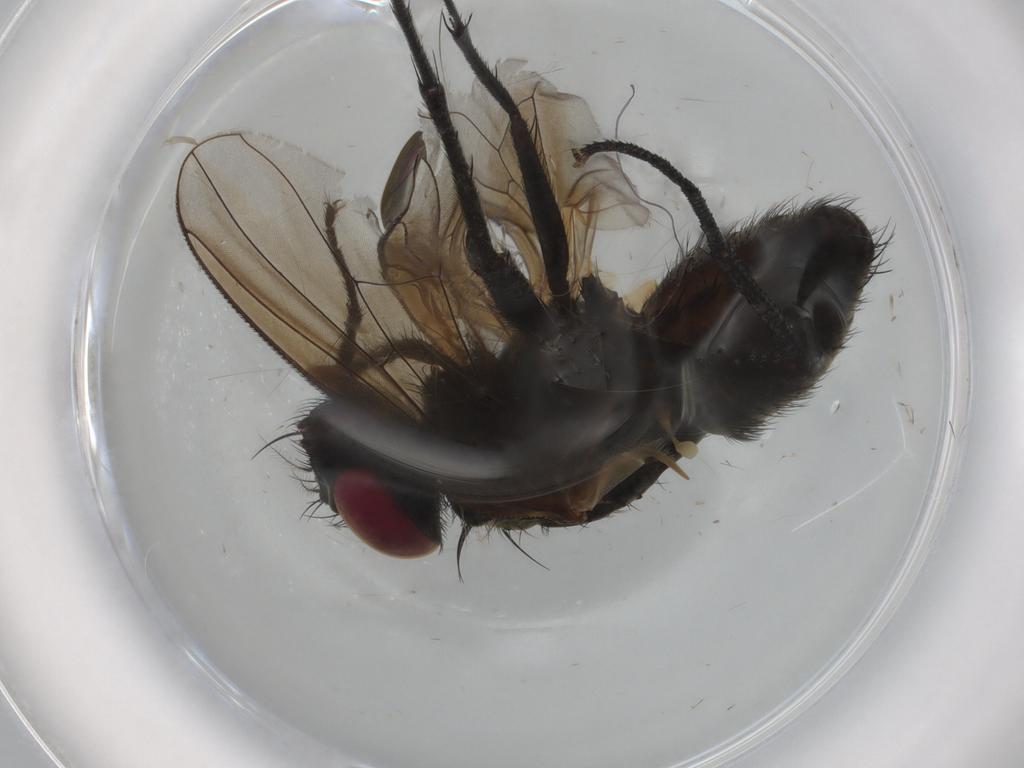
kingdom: Animalia
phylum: Arthropoda
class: Insecta
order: Diptera
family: Muscidae
